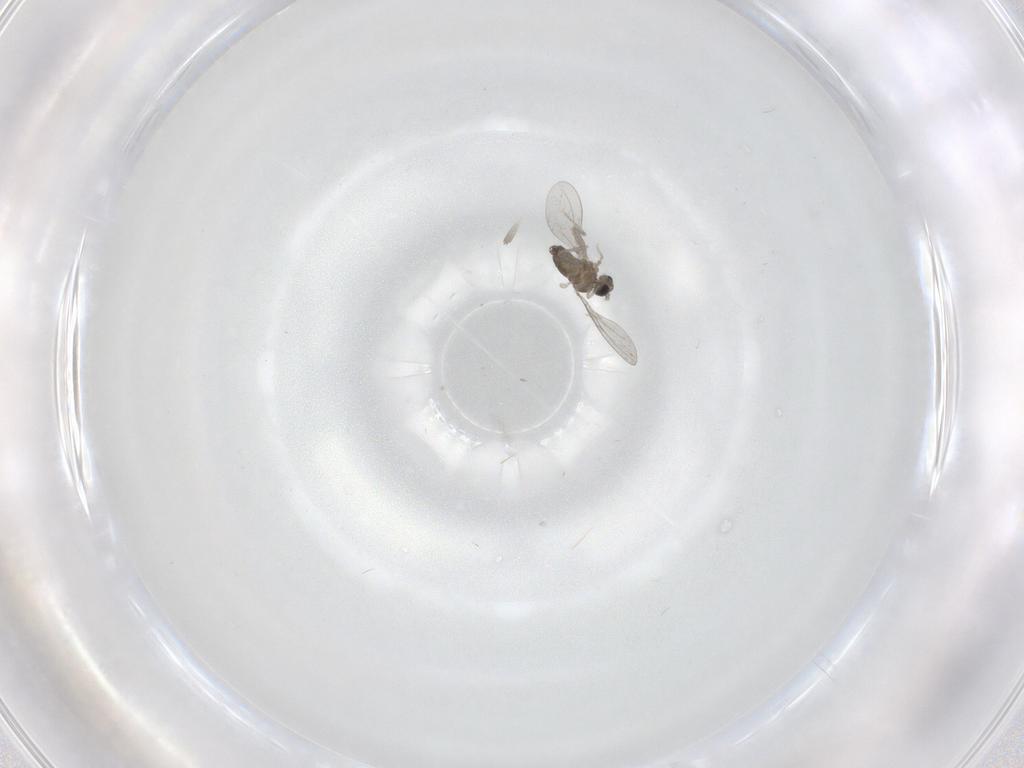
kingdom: Animalia
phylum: Arthropoda
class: Insecta
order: Diptera
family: Cecidomyiidae
